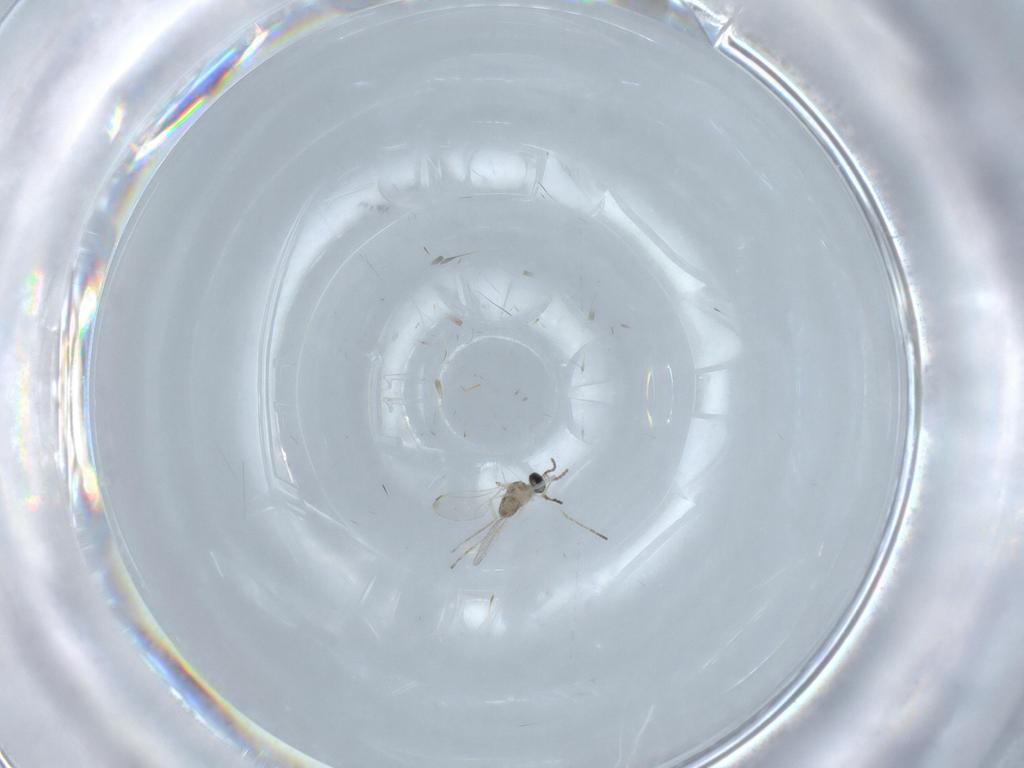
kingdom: Animalia
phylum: Arthropoda
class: Insecta
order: Diptera
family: Cecidomyiidae
